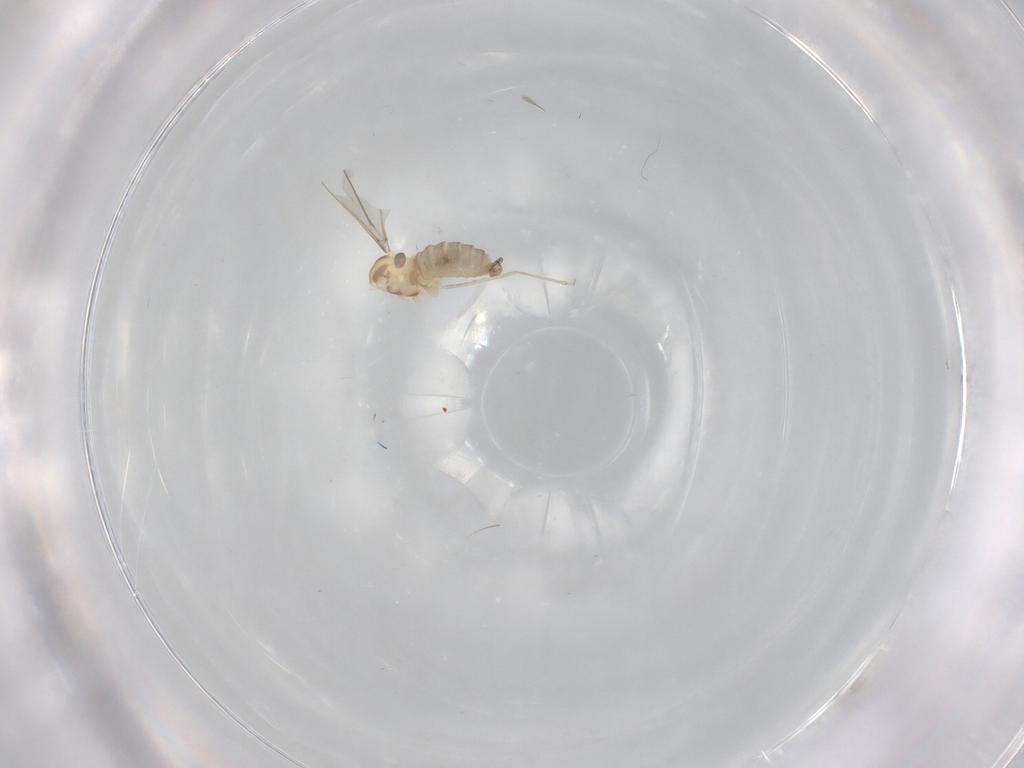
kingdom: Animalia
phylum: Arthropoda
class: Insecta
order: Diptera
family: Cecidomyiidae
